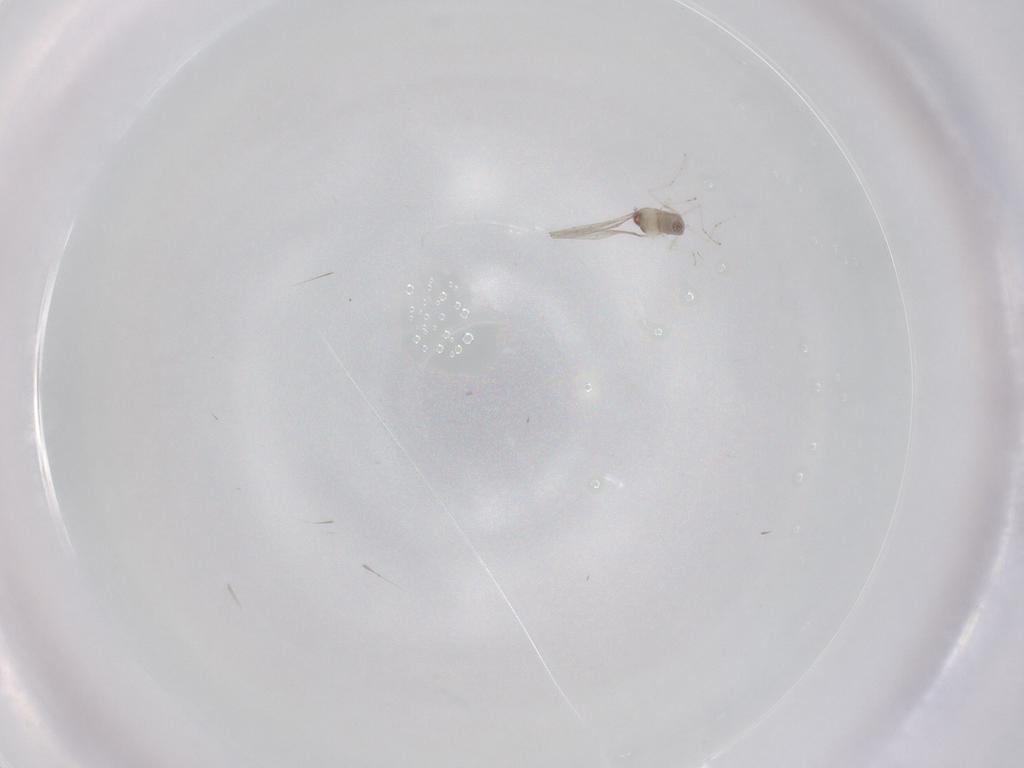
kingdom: Animalia
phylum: Arthropoda
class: Insecta
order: Diptera
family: Cecidomyiidae
